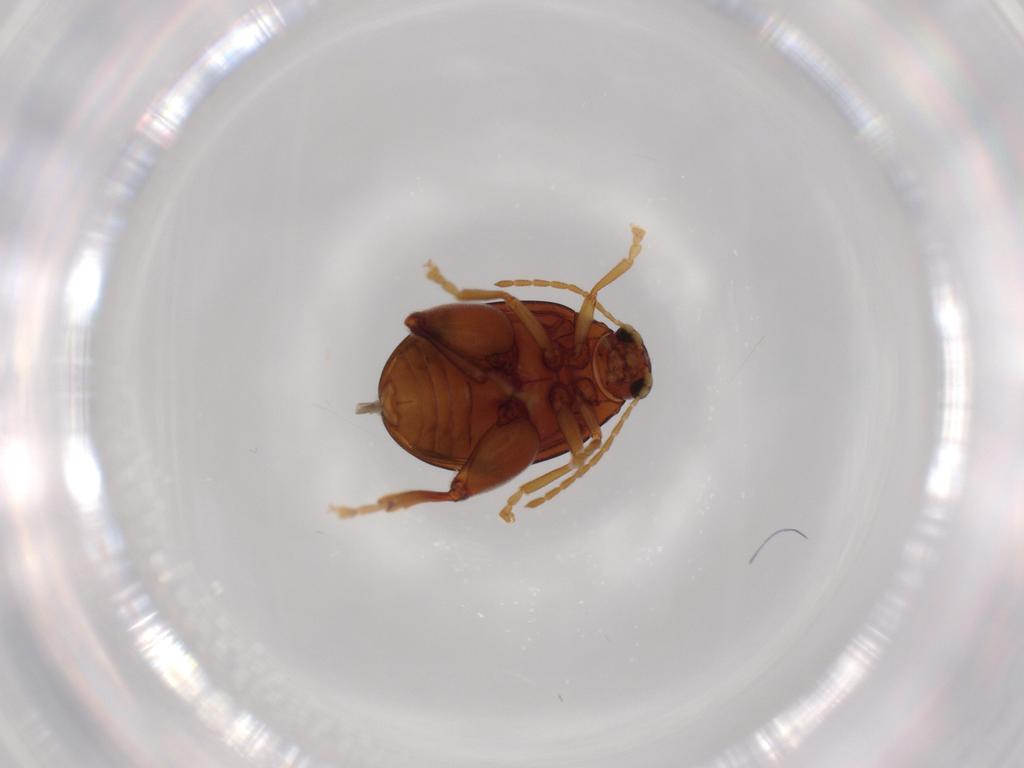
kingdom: Animalia
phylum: Arthropoda
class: Insecta
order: Coleoptera
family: Chrysomelidae
